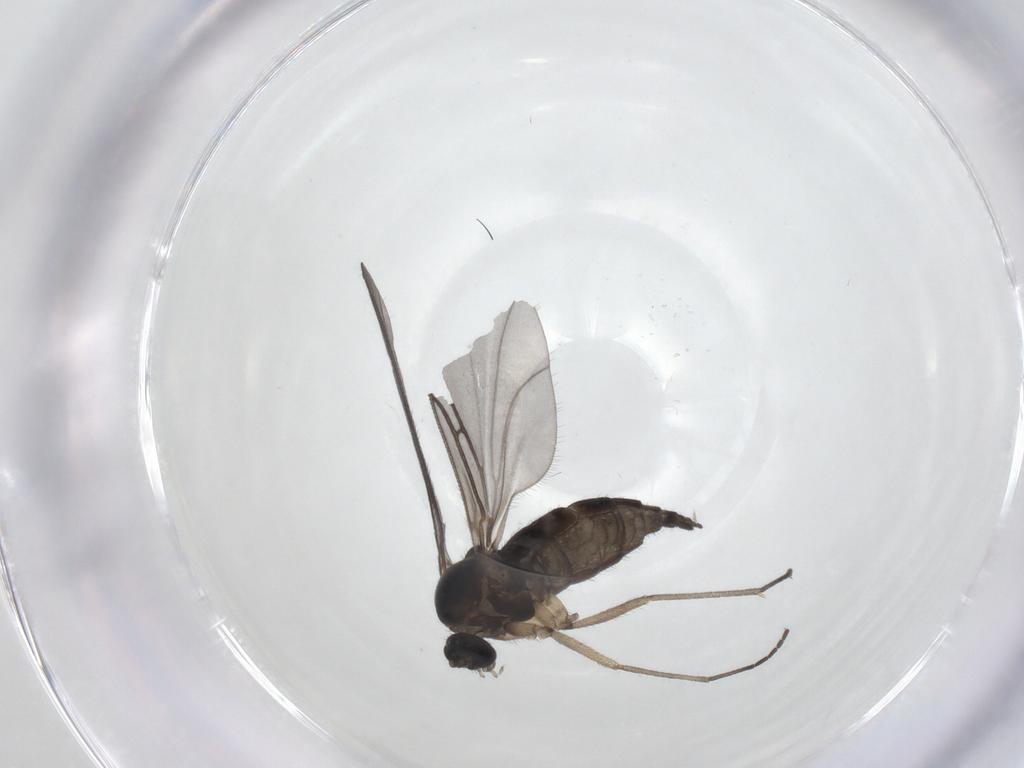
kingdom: Animalia
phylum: Arthropoda
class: Insecta
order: Diptera
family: Sciaridae
